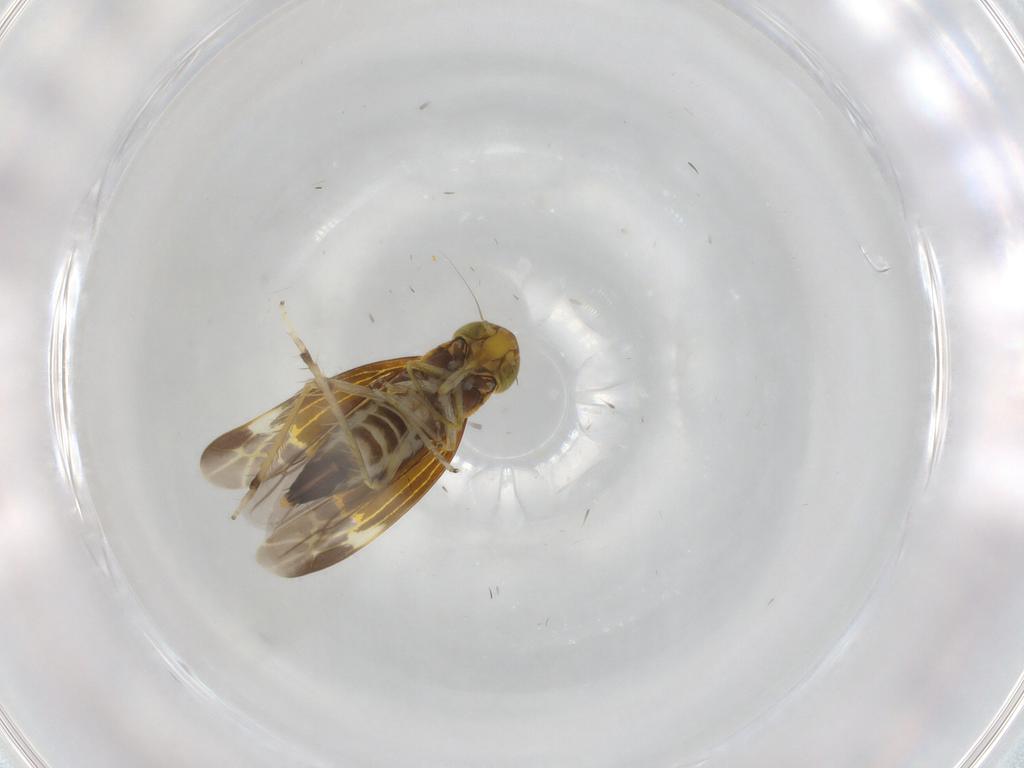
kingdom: Animalia
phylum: Arthropoda
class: Insecta
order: Hemiptera
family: Cicadellidae
